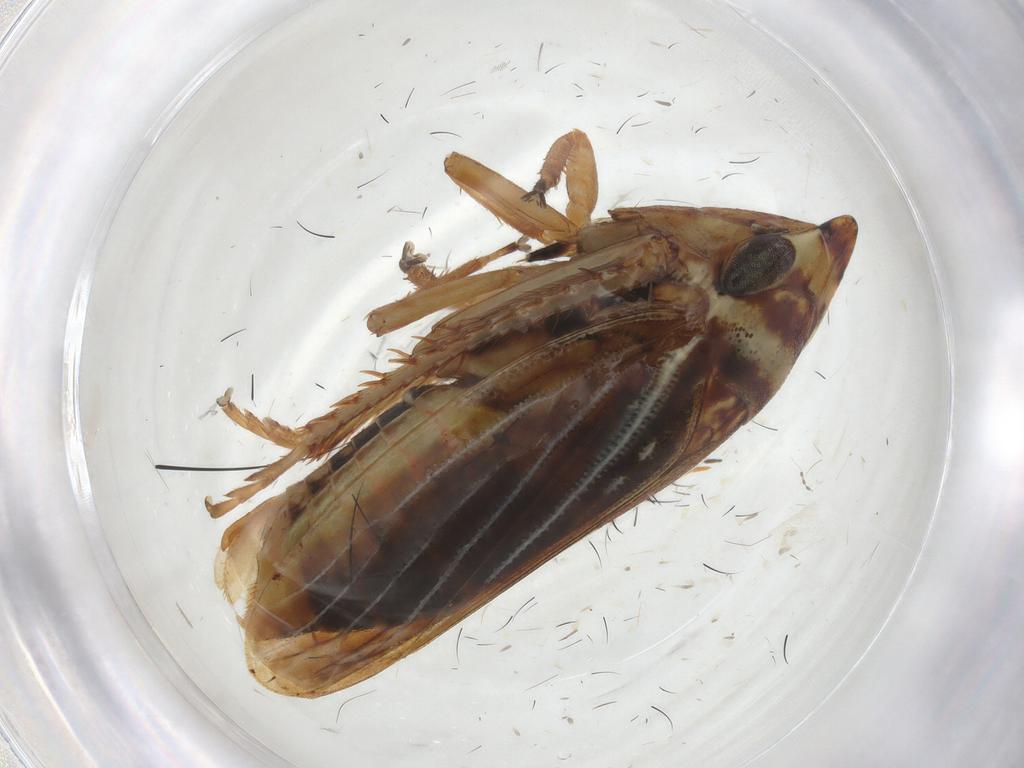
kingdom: Animalia
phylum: Arthropoda
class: Insecta
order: Hemiptera
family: Cicadellidae
